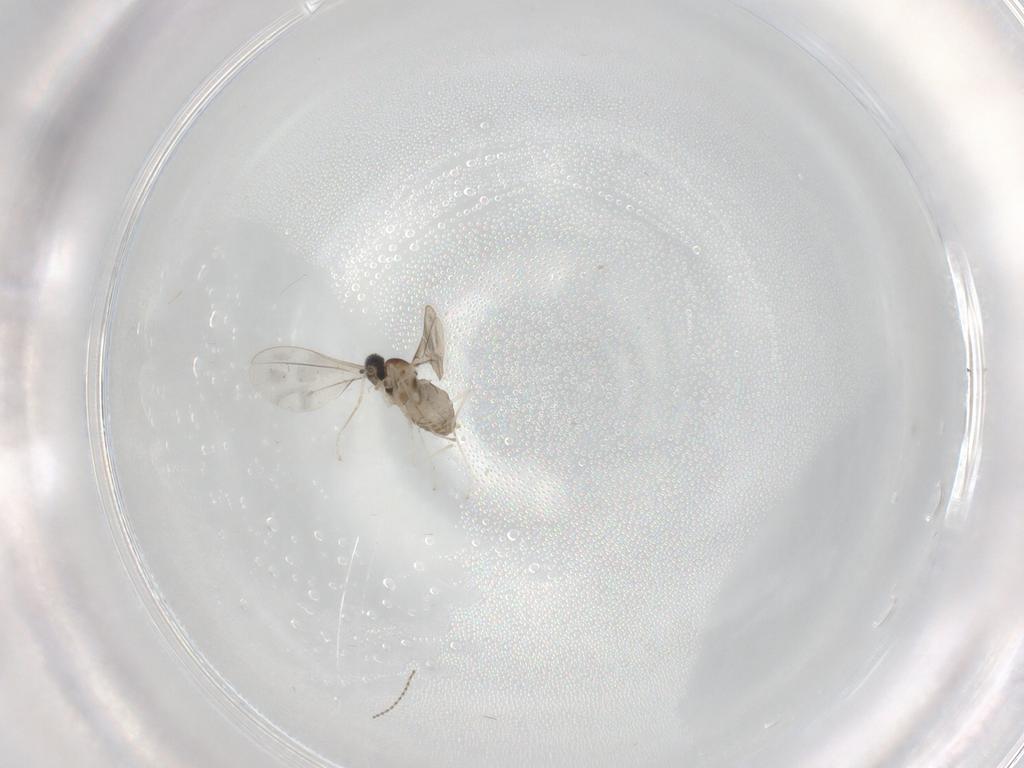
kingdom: Animalia
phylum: Arthropoda
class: Insecta
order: Diptera
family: Cecidomyiidae
